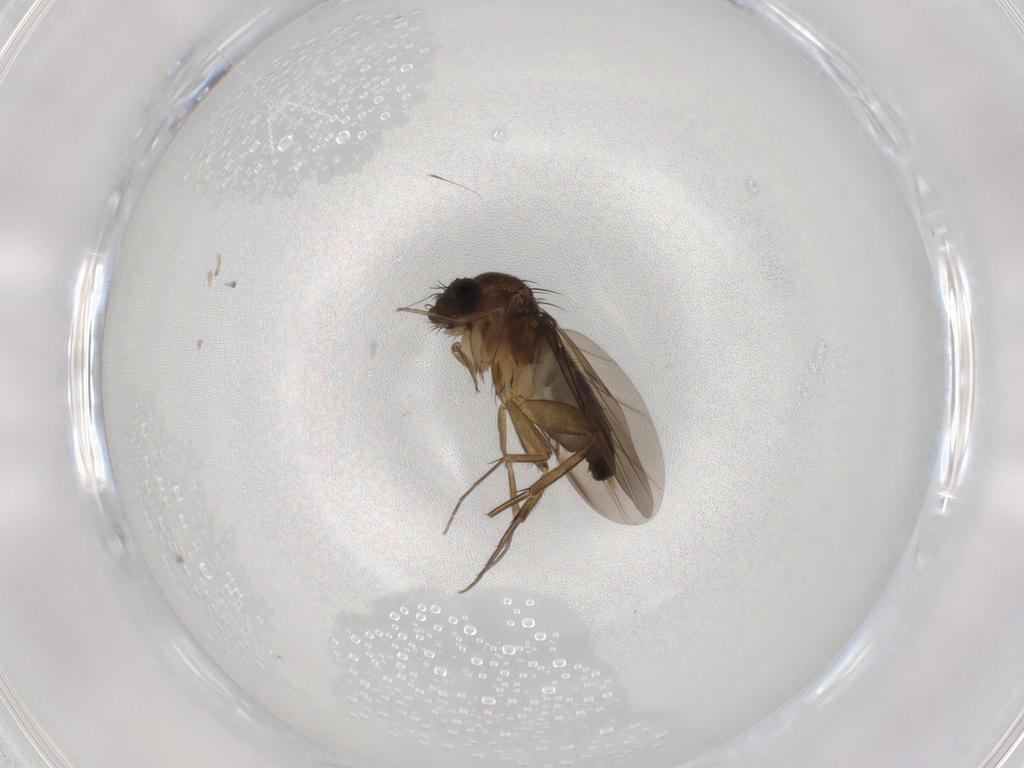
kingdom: Animalia
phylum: Arthropoda
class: Insecta
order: Diptera
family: Phoridae
